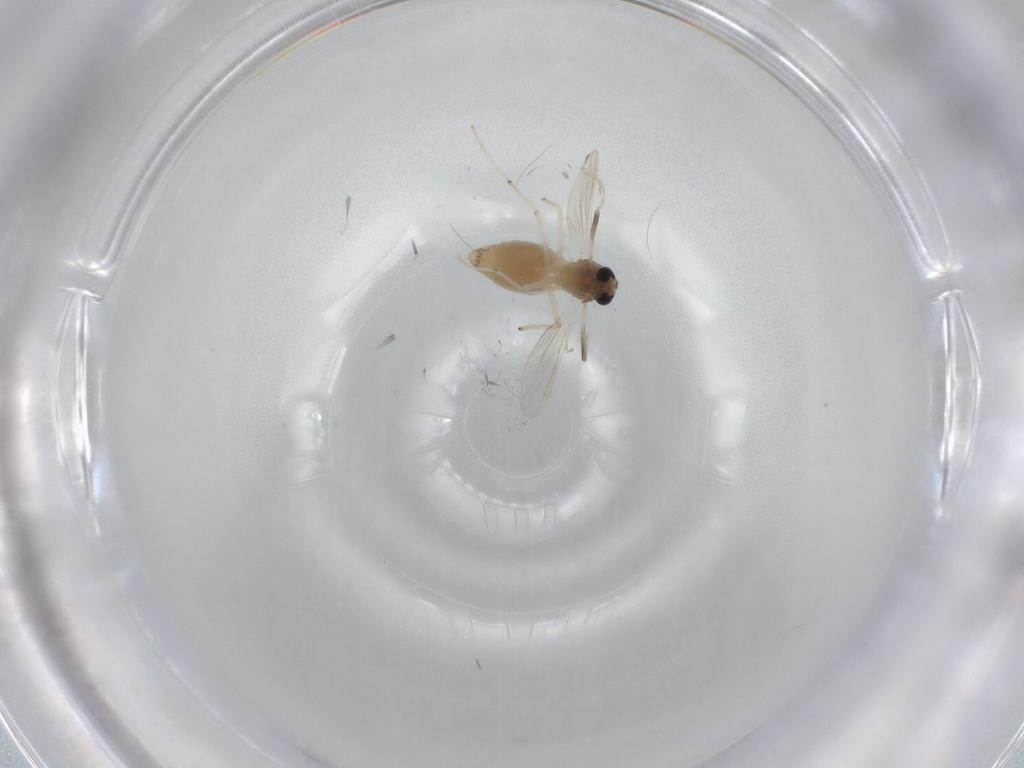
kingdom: Animalia
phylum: Arthropoda
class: Insecta
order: Diptera
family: Chironomidae
